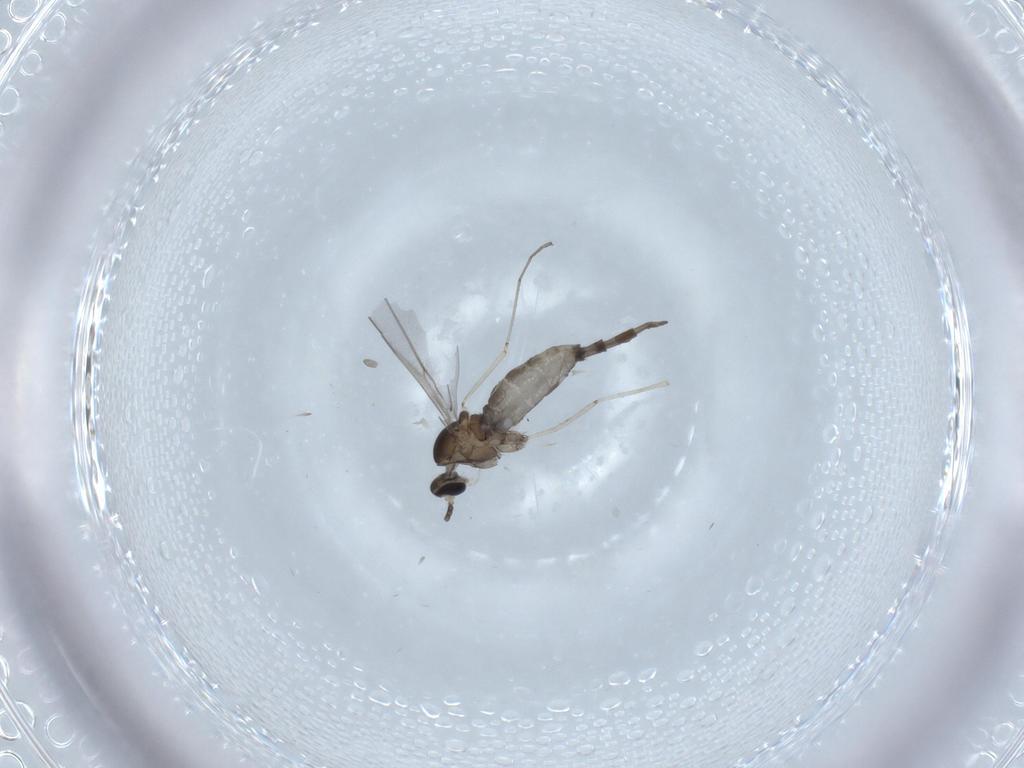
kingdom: Animalia
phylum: Arthropoda
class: Insecta
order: Diptera
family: Cecidomyiidae
